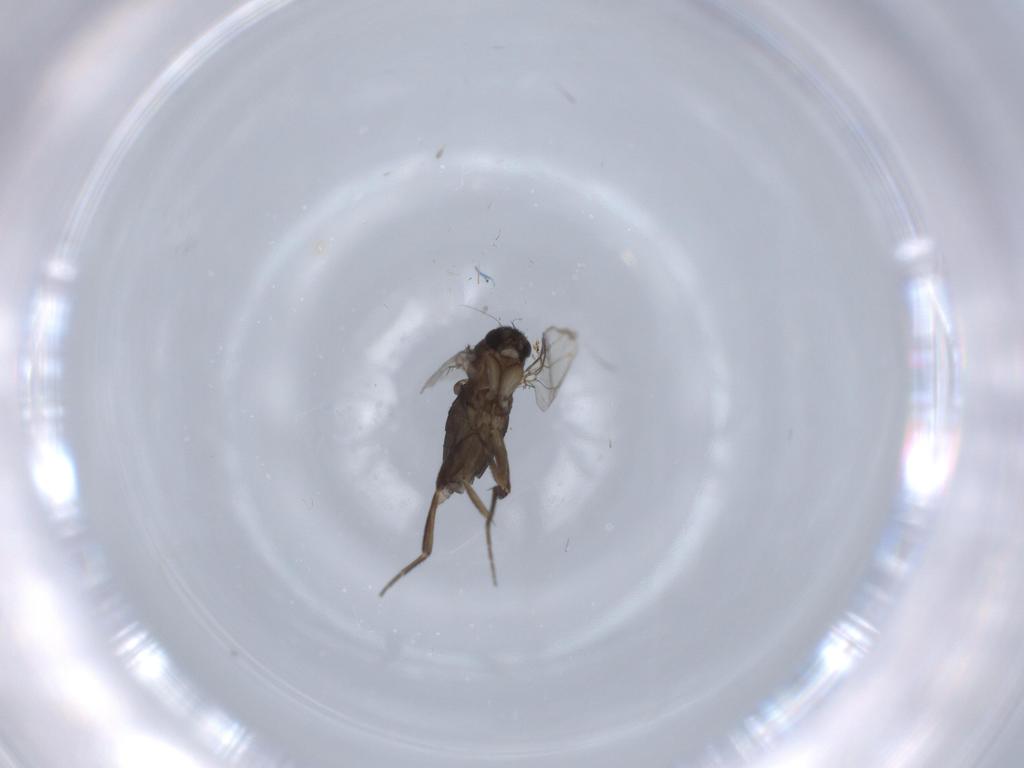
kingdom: Animalia
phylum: Arthropoda
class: Insecta
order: Diptera
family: Phoridae
